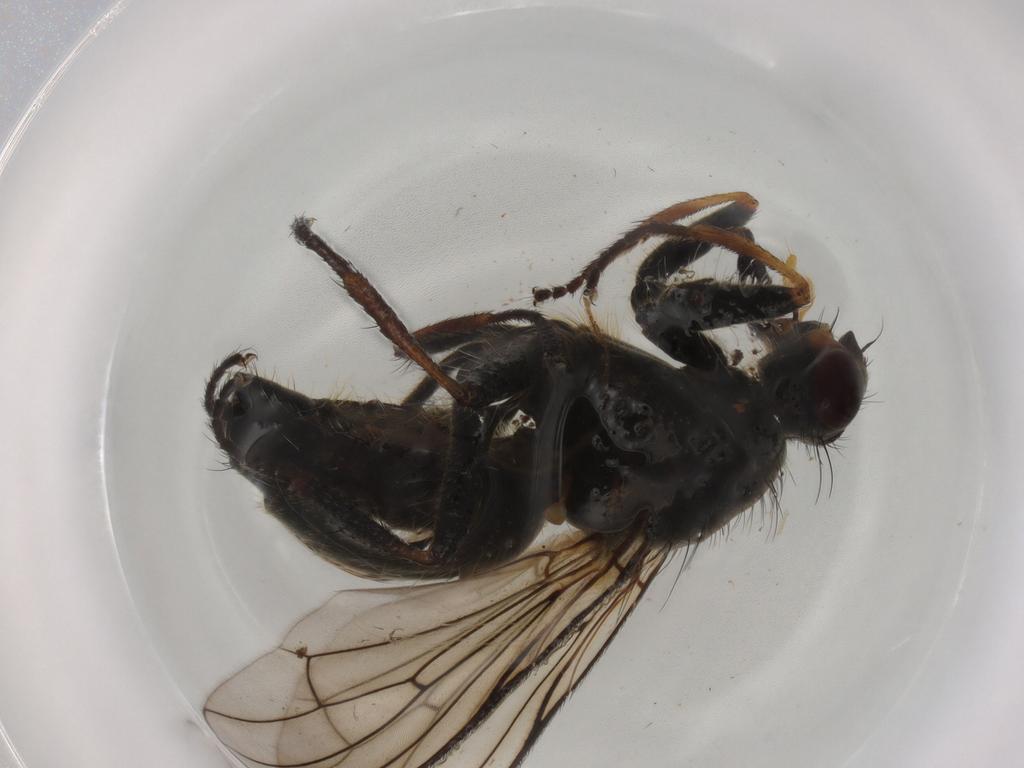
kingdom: Animalia
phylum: Arthropoda
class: Insecta
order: Diptera
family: Scathophagidae
